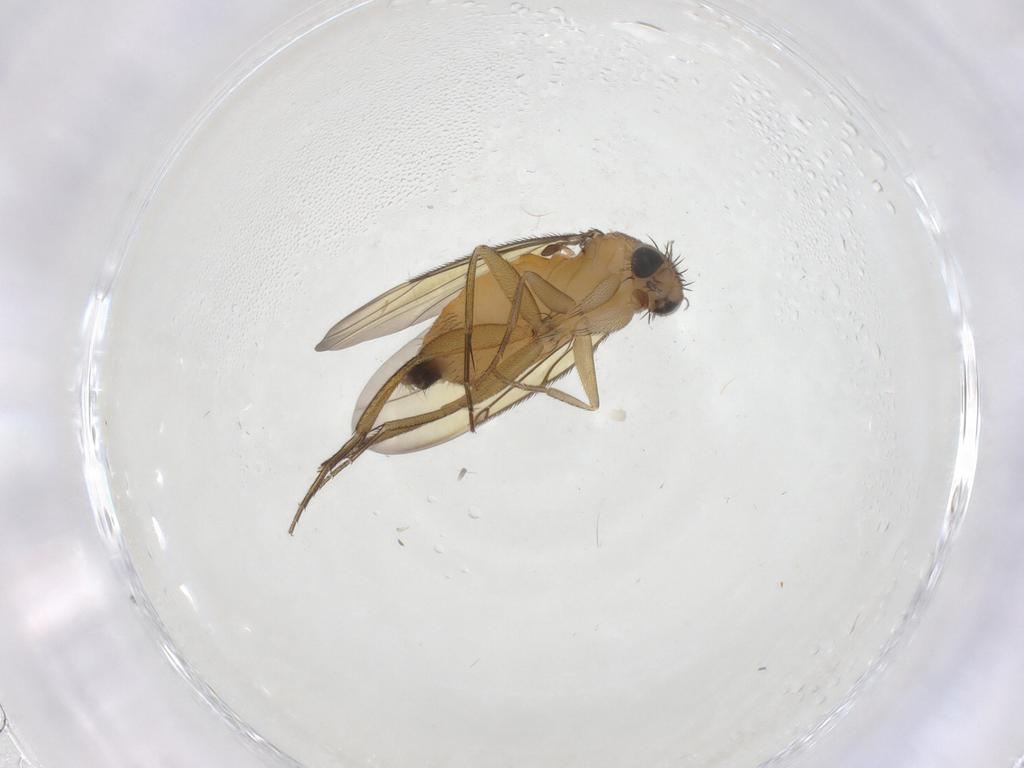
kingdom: Animalia
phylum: Arthropoda
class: Insecta
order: Diptera
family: Phoridae
